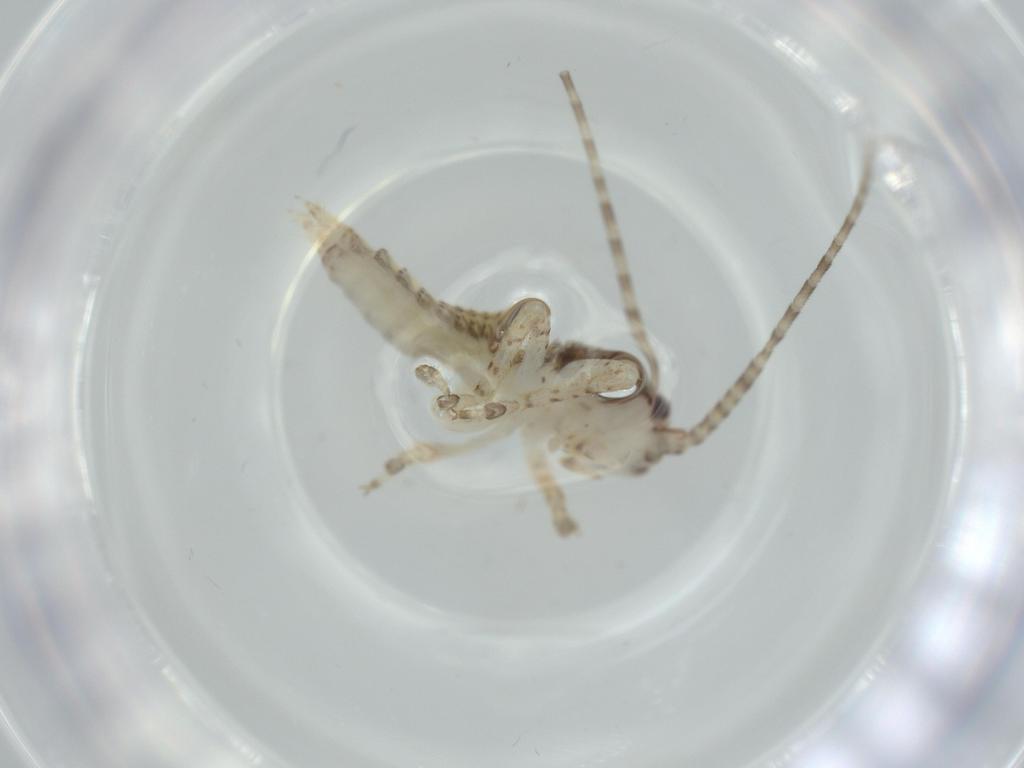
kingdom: Animalia
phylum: Arthropoda
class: Insecta
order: Orthoptera
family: Gryllidae
